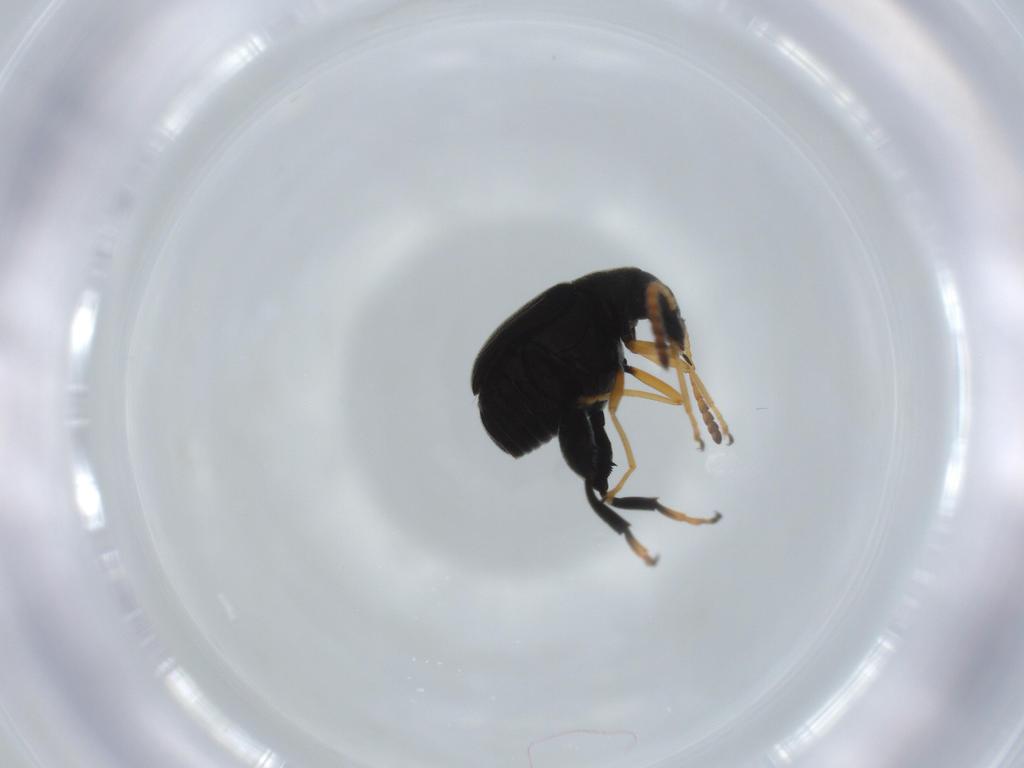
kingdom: Animalia
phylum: Arthropoda
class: Insecta
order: Coleoptera
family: Chrysomelidae
